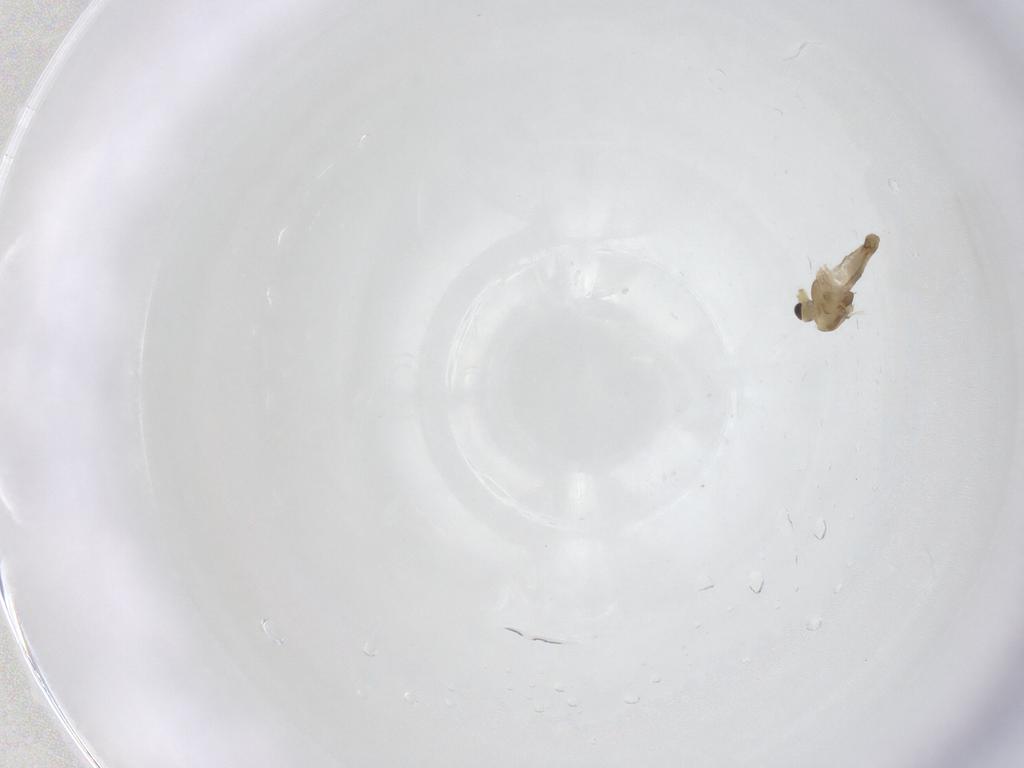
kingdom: Animalia
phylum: Arthropoda
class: Insecta
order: Diptera
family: Chironomidae
